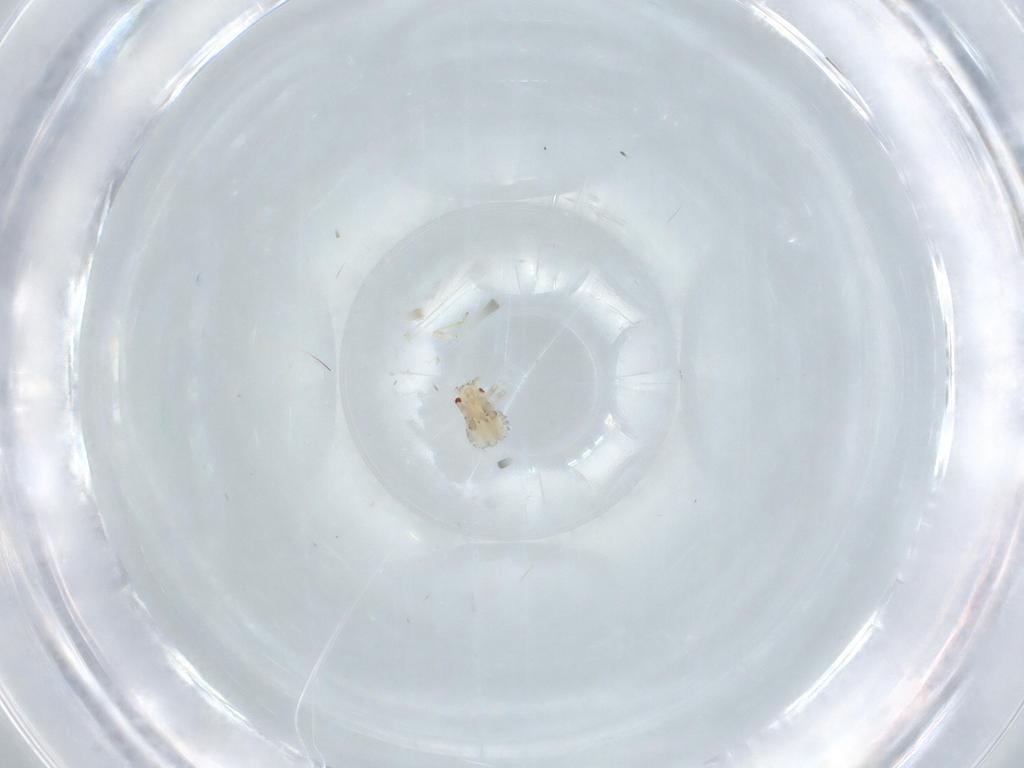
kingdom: Animalia
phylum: Arthropoda
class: Insecta
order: Hemiptera
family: Aphididae
